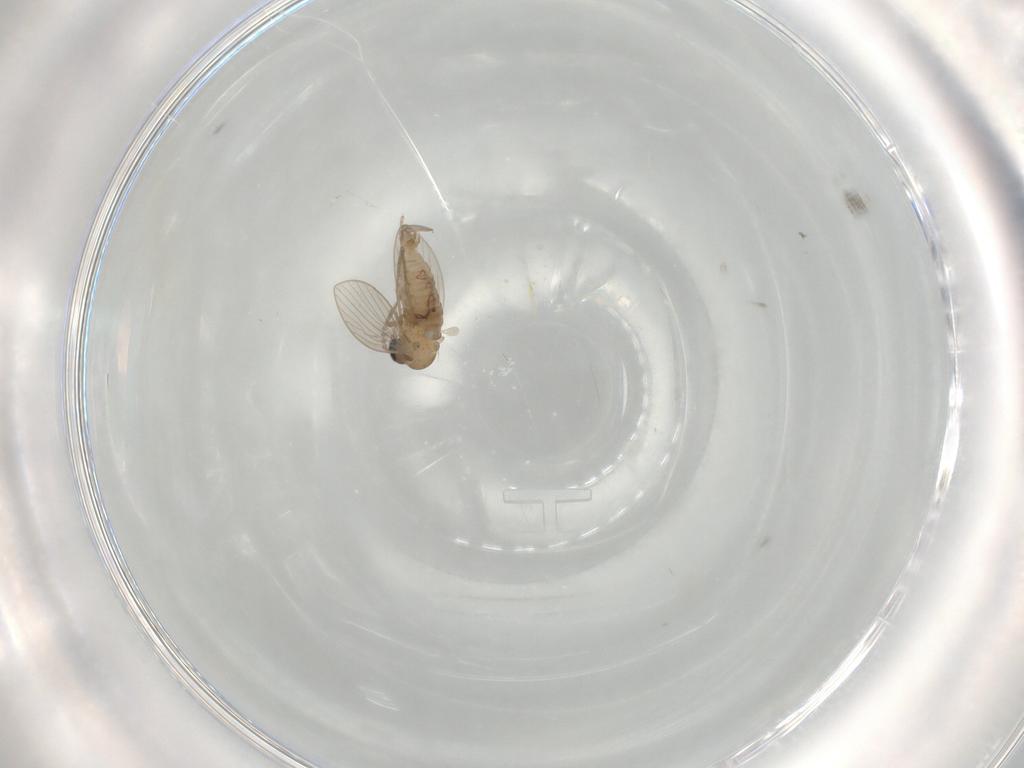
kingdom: Animalia
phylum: Arthropoda
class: Insecta
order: Diptera
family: Psychodidae
